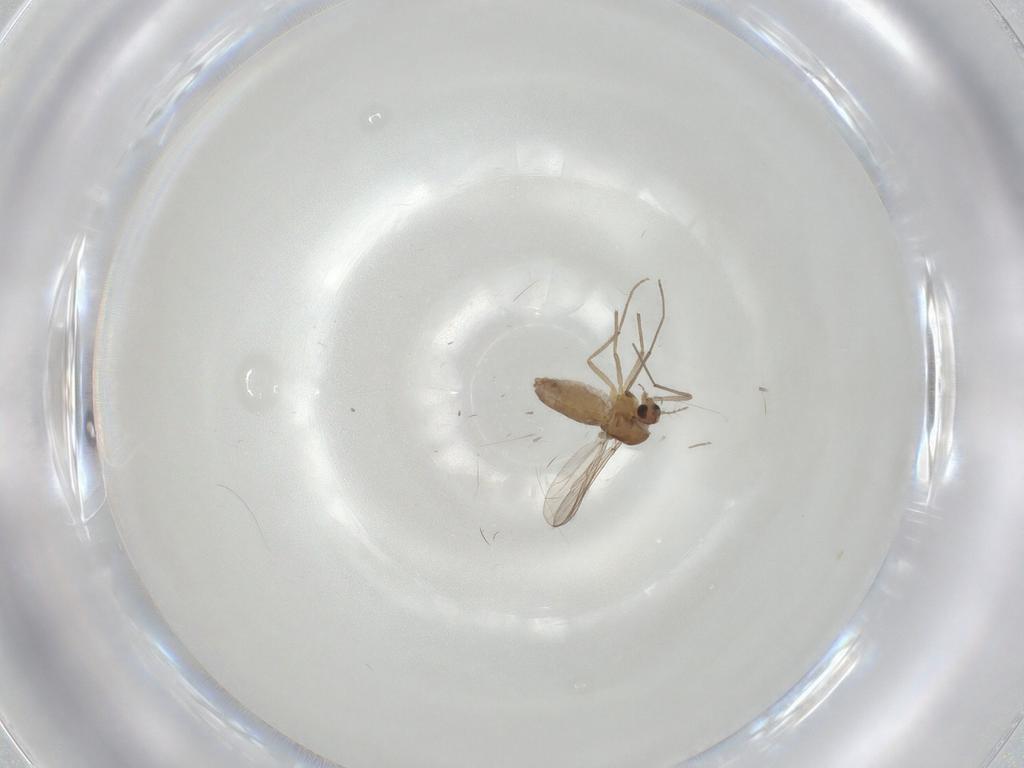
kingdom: Animalia
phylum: Arthropoda
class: Insecta
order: Diptera
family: Chironomidae
